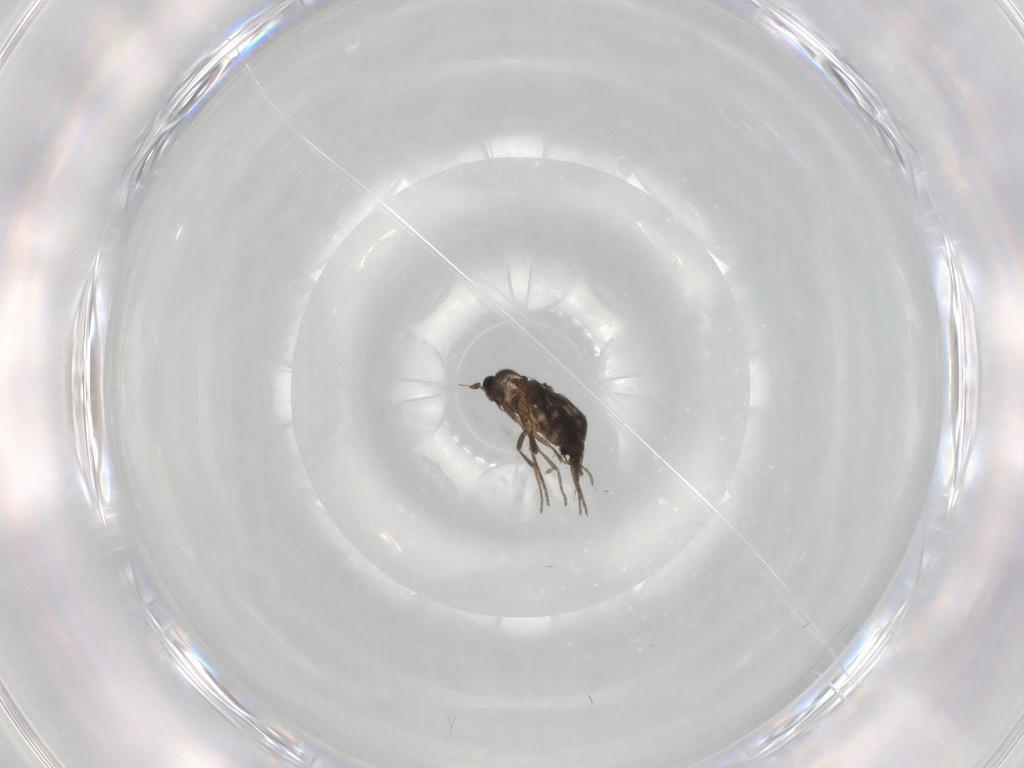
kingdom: Animalia
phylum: Arthropoda
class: Insecta
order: Diptera
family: Phoridae
